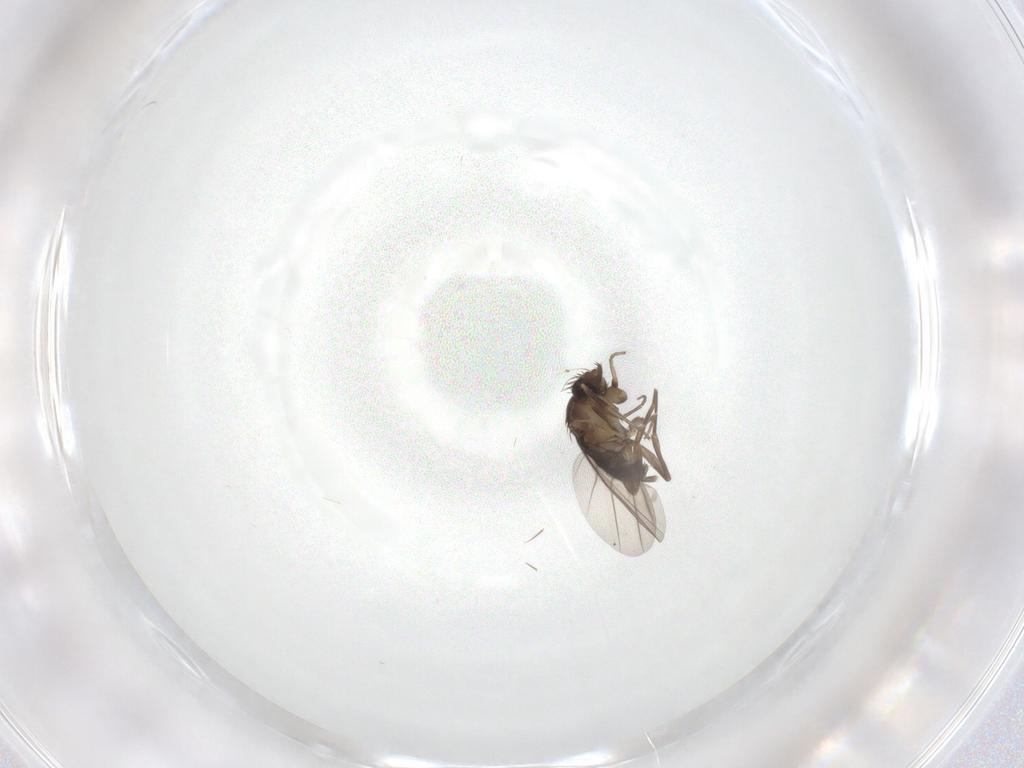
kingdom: Animalia
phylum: Arthropoda
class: Insecta
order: Diptera
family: Phoridae
